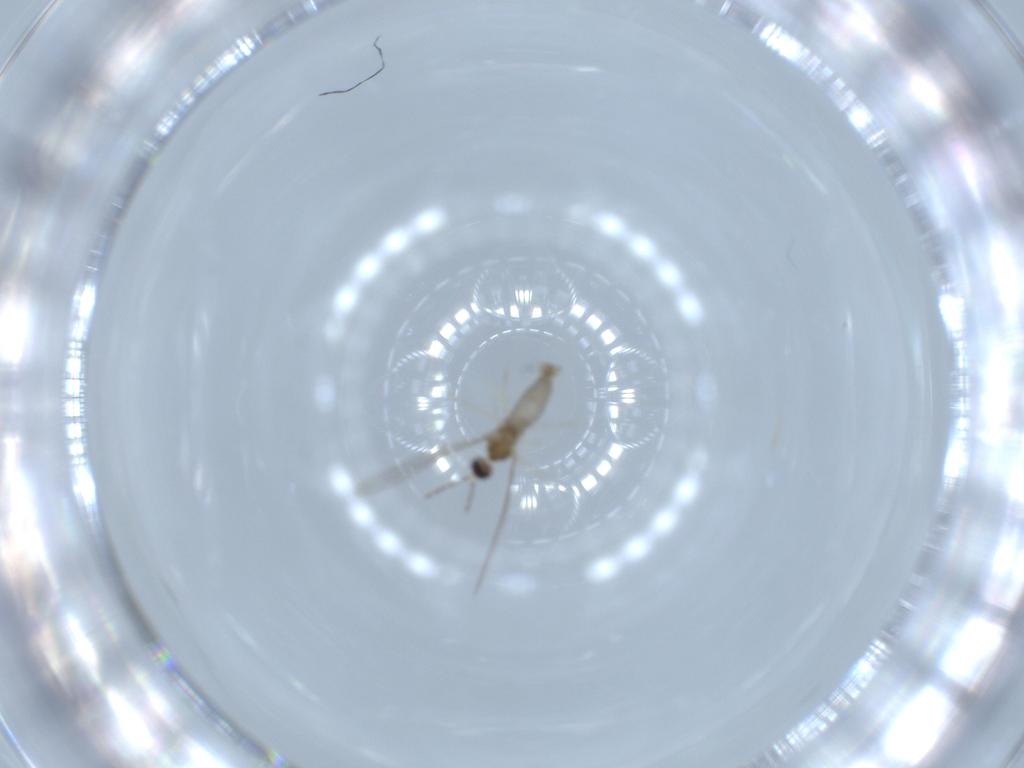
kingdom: Animalia
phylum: Arthropoda
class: Insecta
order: Diptera
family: Cecidomyiidae
